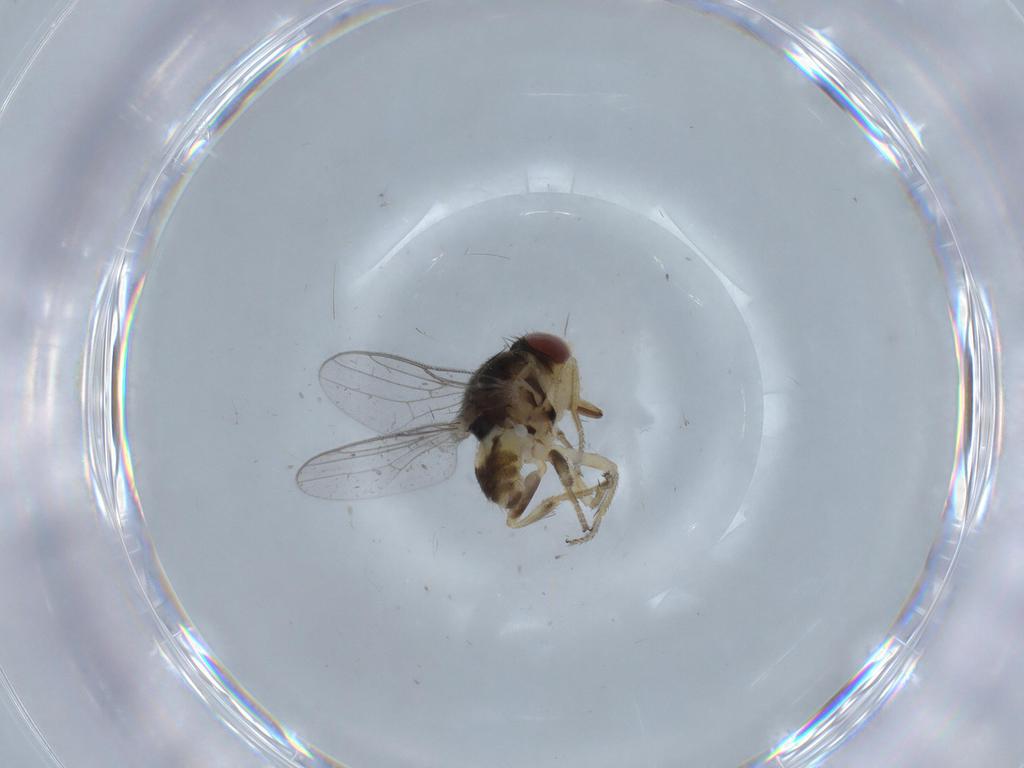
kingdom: Animalia
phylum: Arthropoda
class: Insecta
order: Diptera
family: Chloropidae
